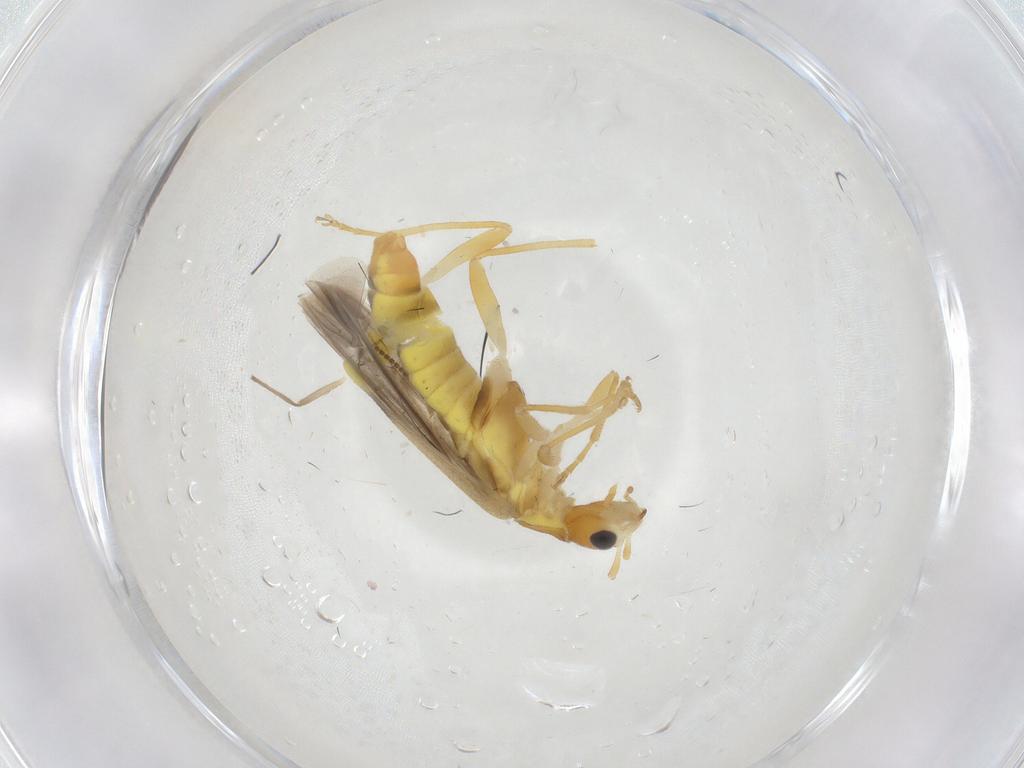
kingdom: Animalia
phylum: Arthropoda
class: Insecta
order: Coleoptera
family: Cantharidae
